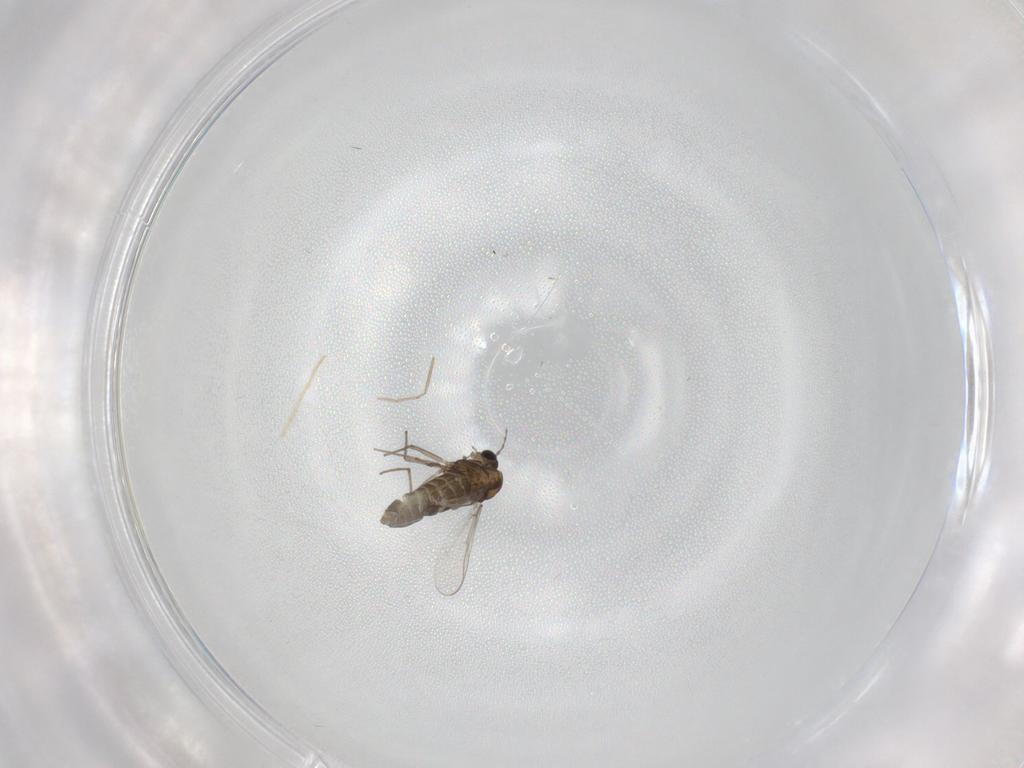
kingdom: Animalia
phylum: Arthropoda
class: Insecta
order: Diptera
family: Chironomidae
